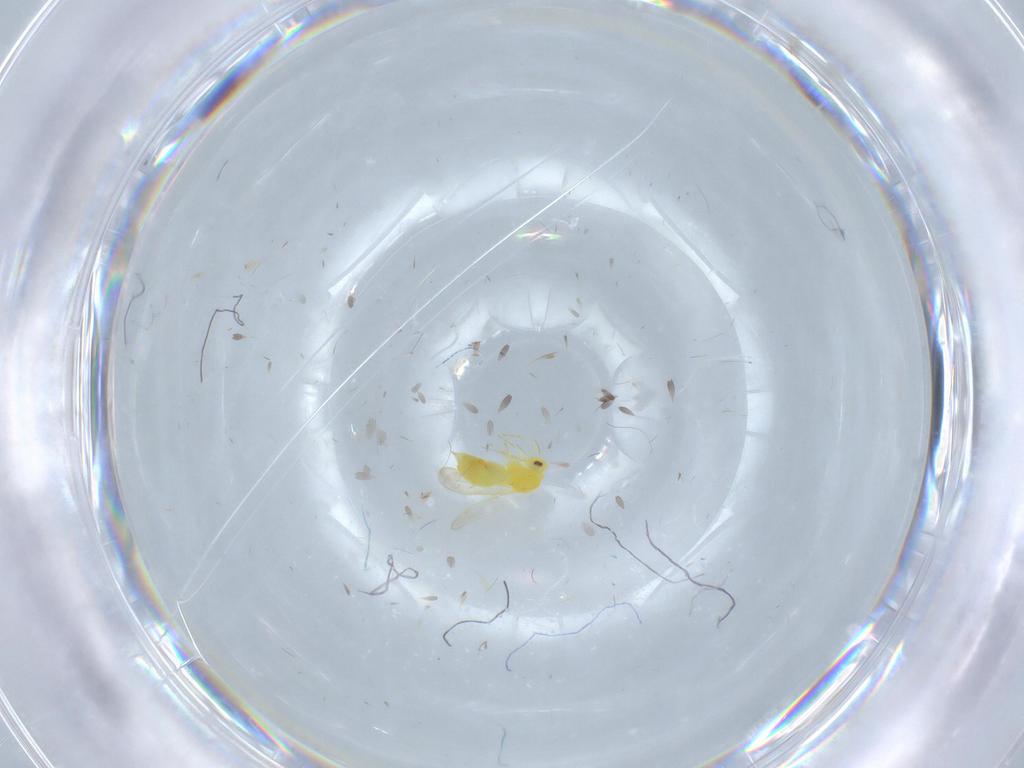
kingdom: Animalia
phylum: Arthropoda
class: Insecta
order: Hemiptera
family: Aleyrodidae
